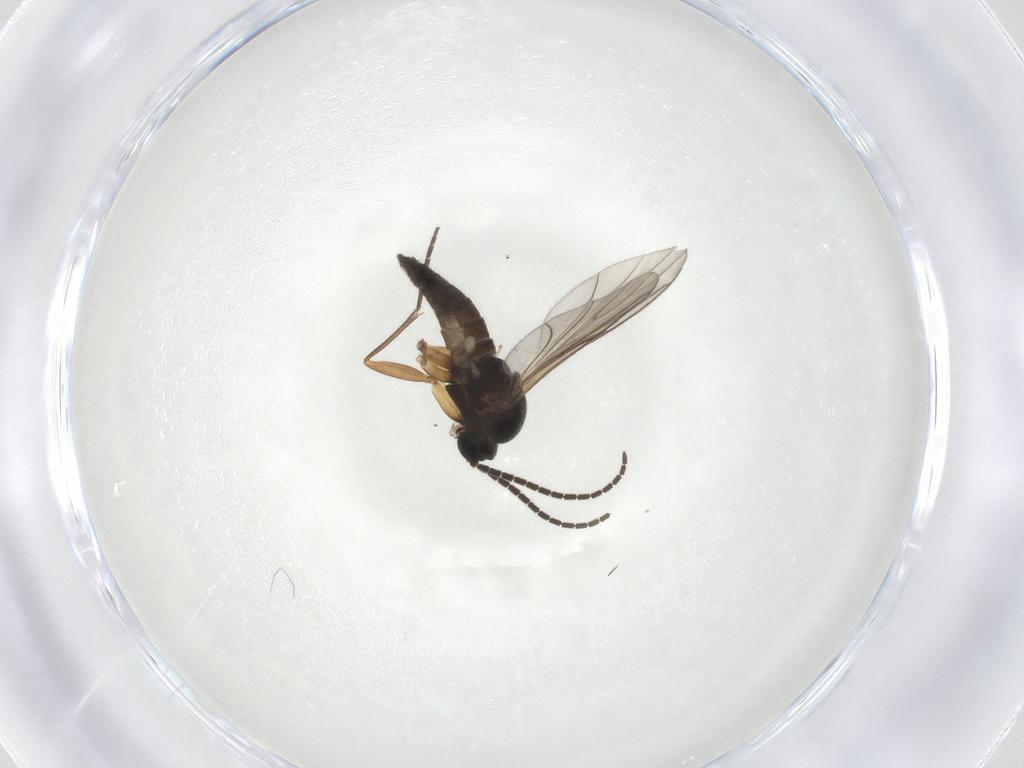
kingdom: Animalia
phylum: Arthropoda
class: Insecta
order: Diptera
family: Sciaridae
